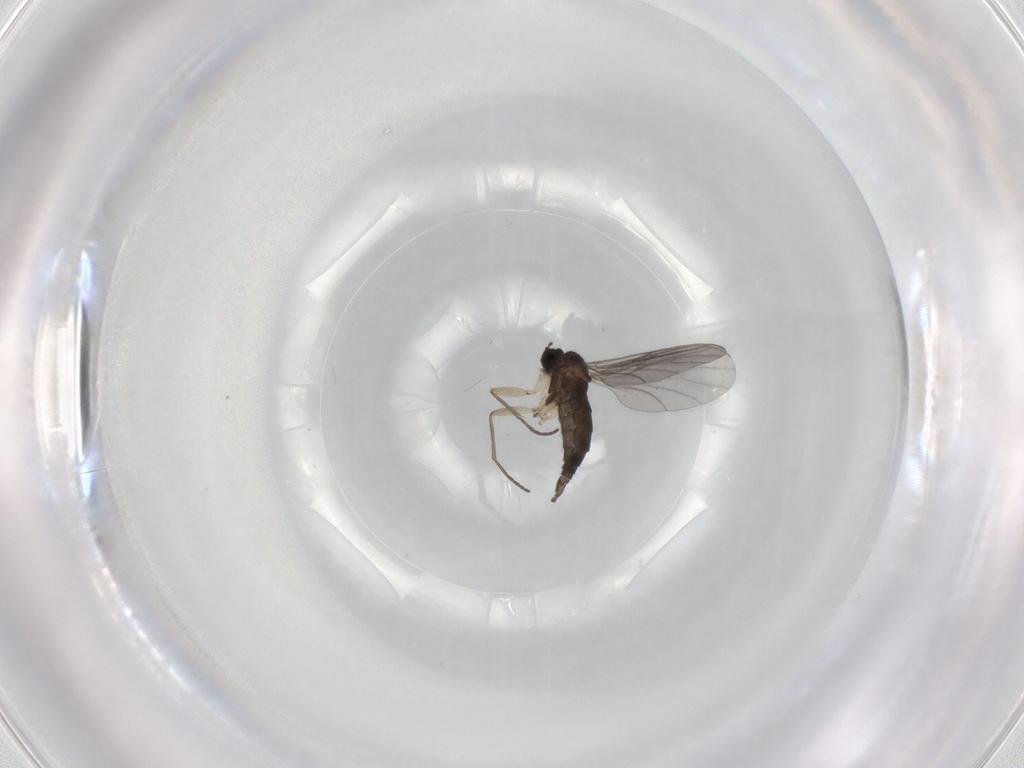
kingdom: Animalia
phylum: Arthropoda
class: Insecta
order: Diptera
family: Sciaridae
